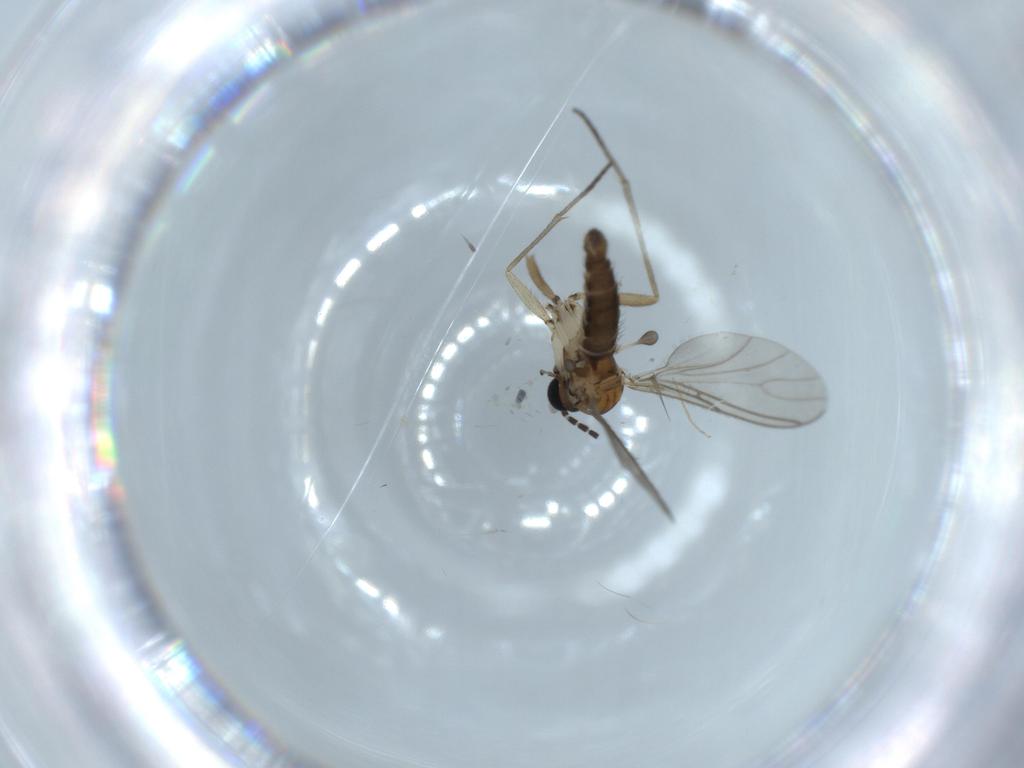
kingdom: Animalia
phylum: Arthropoda
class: Insecta
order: Diptera
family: Sciaridae
